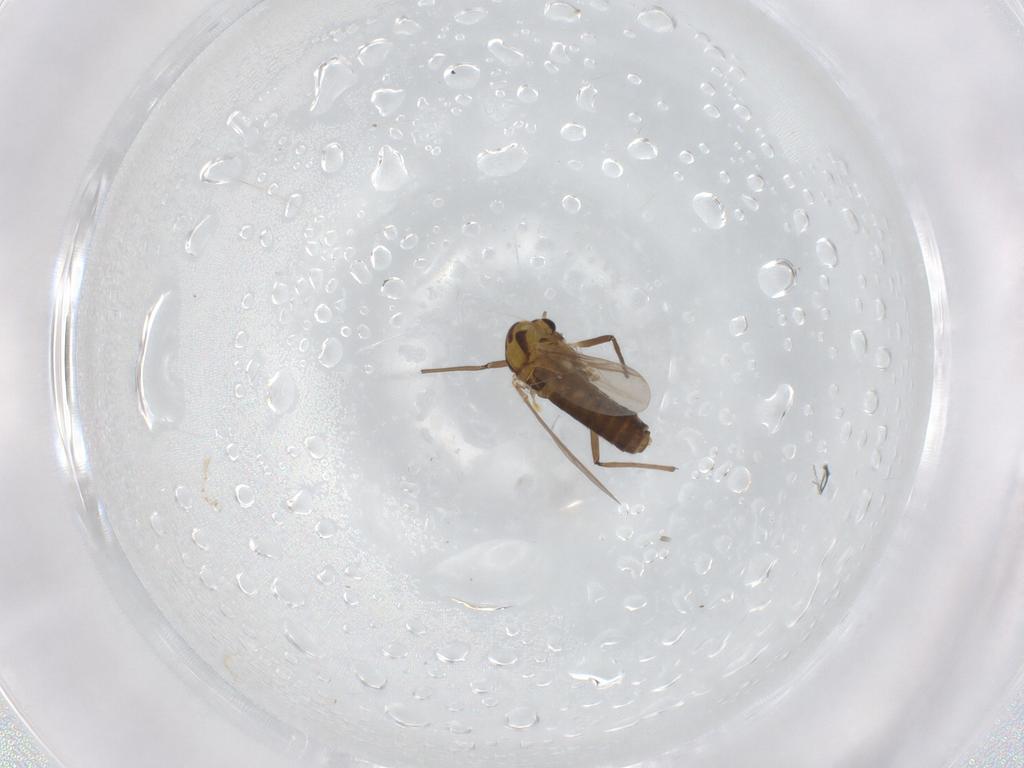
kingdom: Animalia
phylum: Arthropoda
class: Insecta
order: Diptera
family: Chironomidae
